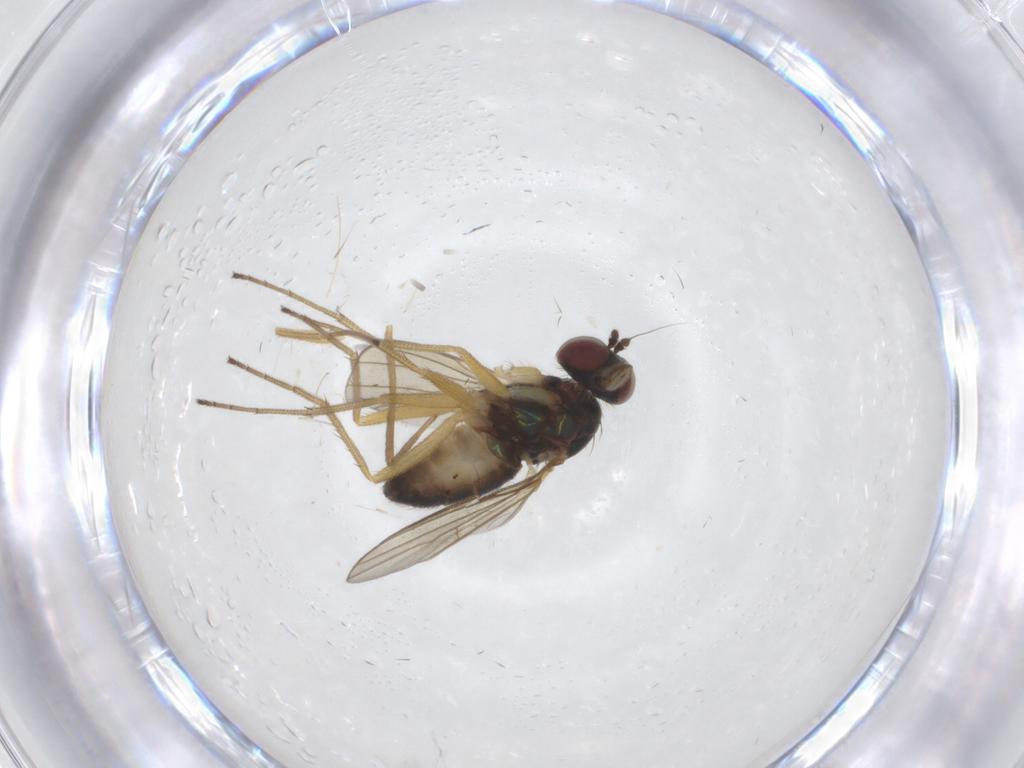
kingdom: Animalia
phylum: Arthropoda
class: Insecta
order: Diptera
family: Dolichopodidae
